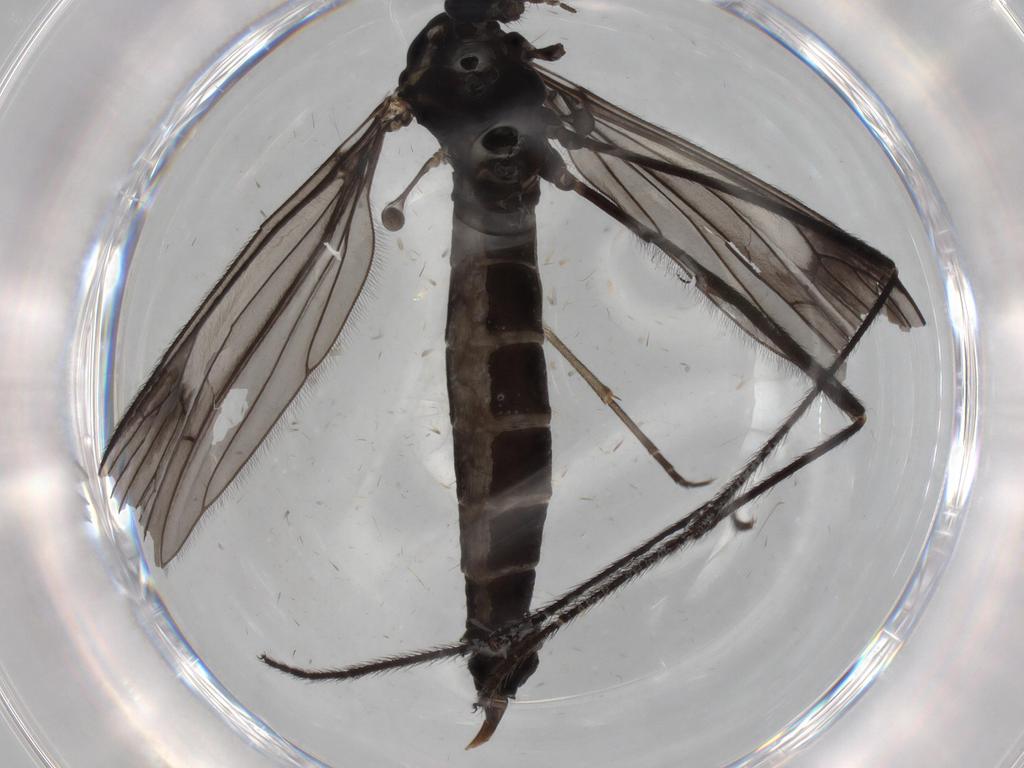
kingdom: Animalia
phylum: Arthropoda
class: Insecta
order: Diptera
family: Limoniidae
